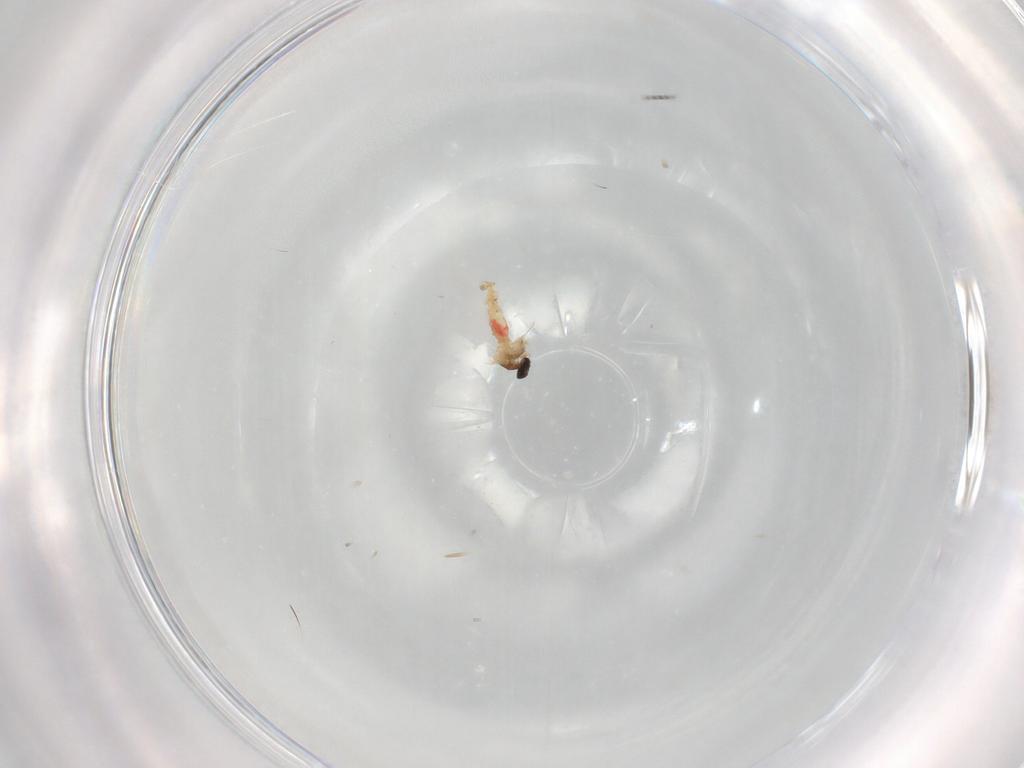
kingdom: Animalia
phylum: Arthropoda
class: Insecta
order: Diptera
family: Cecidomyiidae
